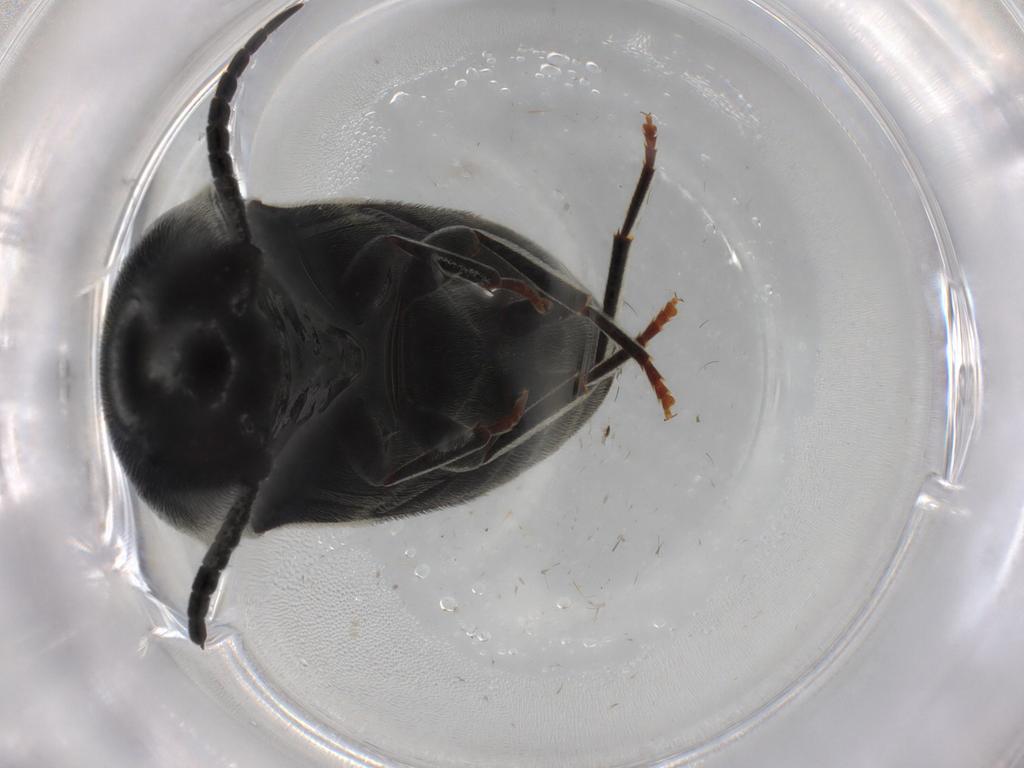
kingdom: Animalia
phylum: Arthropoda
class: Insecta
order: Coleoptera
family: Eucnemidae
